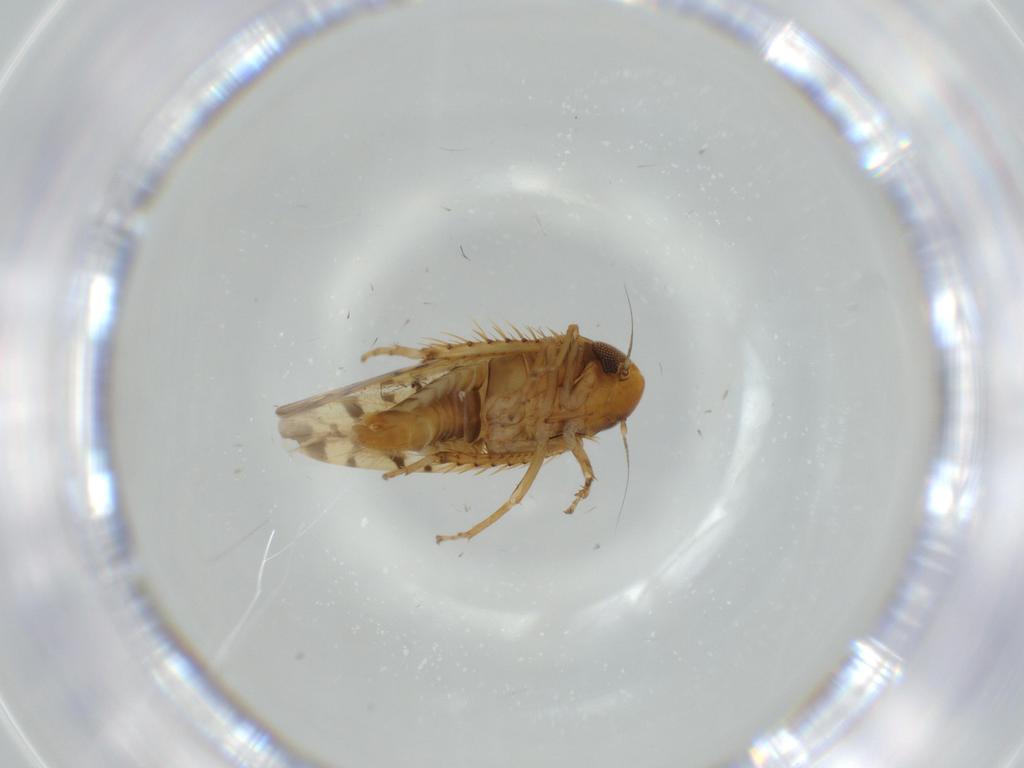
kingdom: Animalia
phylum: Arthropoda
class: Insecta
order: Hemiptera
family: Cicadellidae
